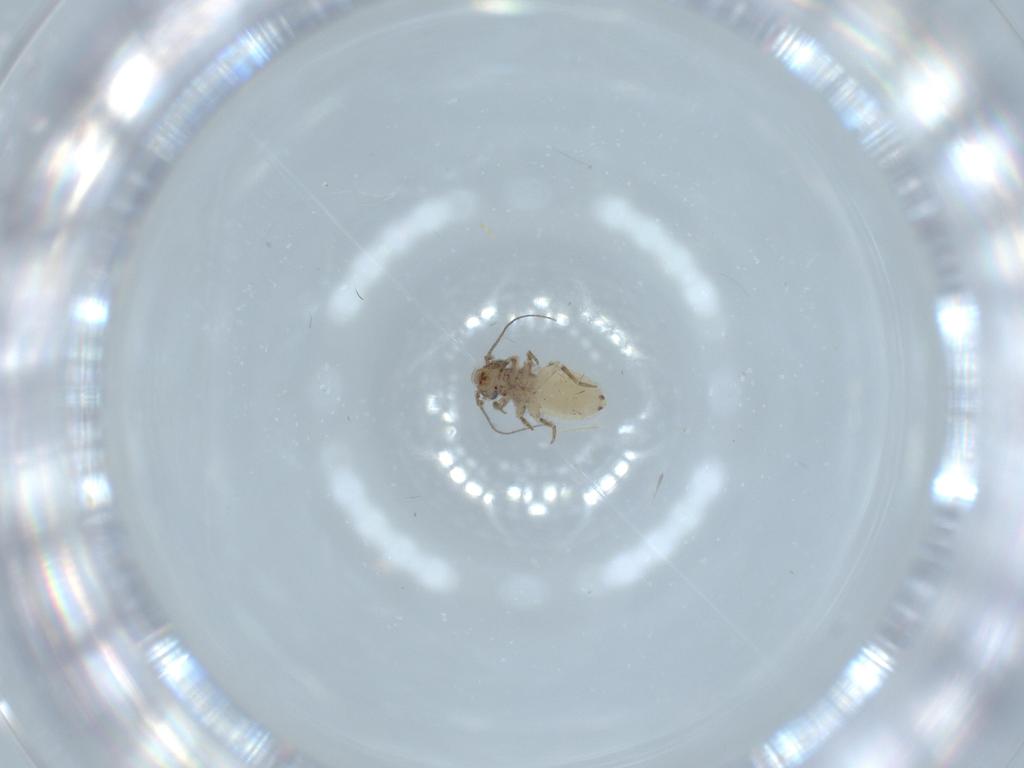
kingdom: Animalia
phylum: Arthropoda
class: Insecta
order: Psocodea
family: Lepidopsocidae
